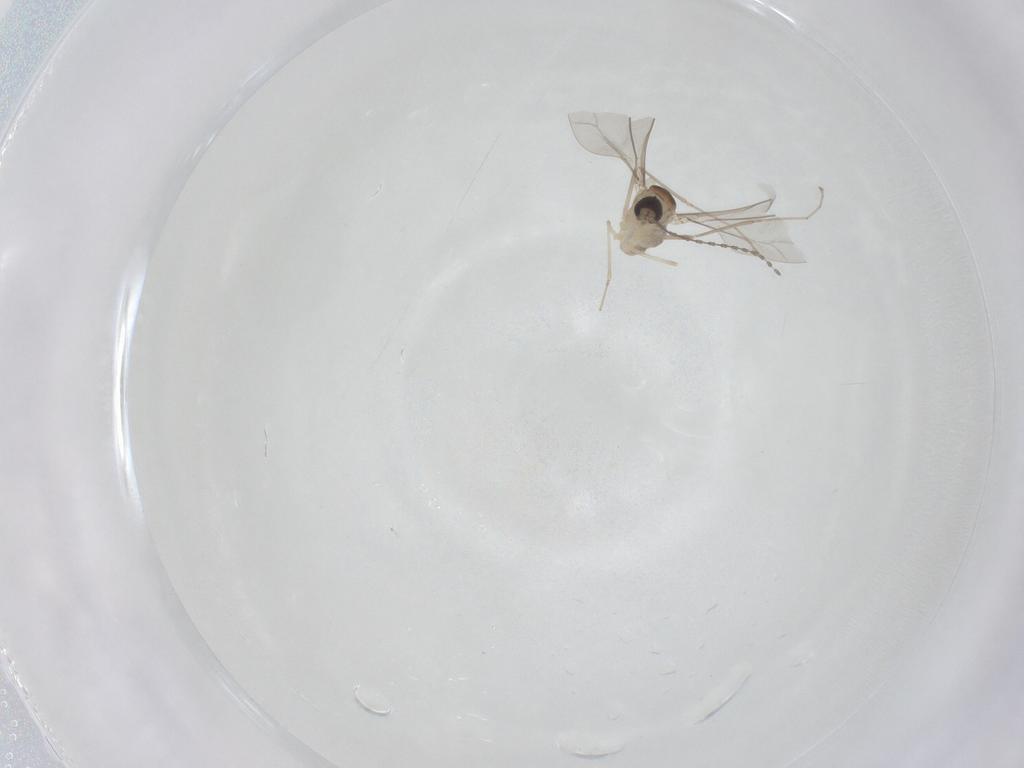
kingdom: Animalia
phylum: Arthropoda
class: Insecta
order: Diptera
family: Cecidomyiidae
